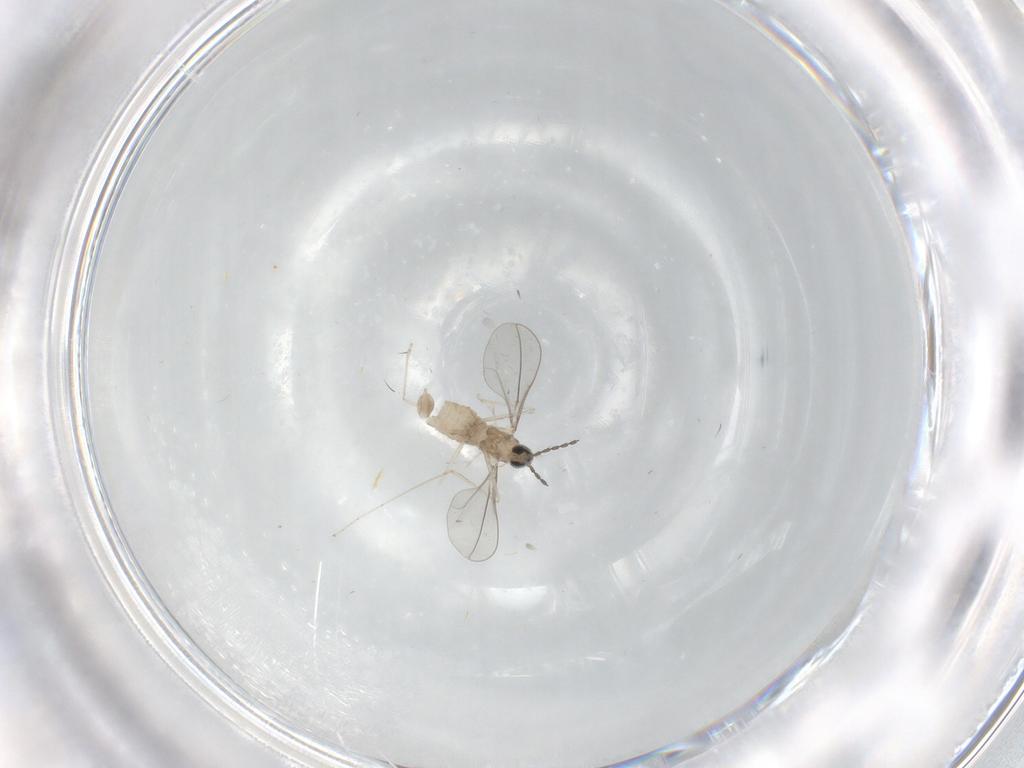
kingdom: Animalia
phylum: Arthropoda
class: Insecta
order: Diptera
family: Cecidomyiidae
